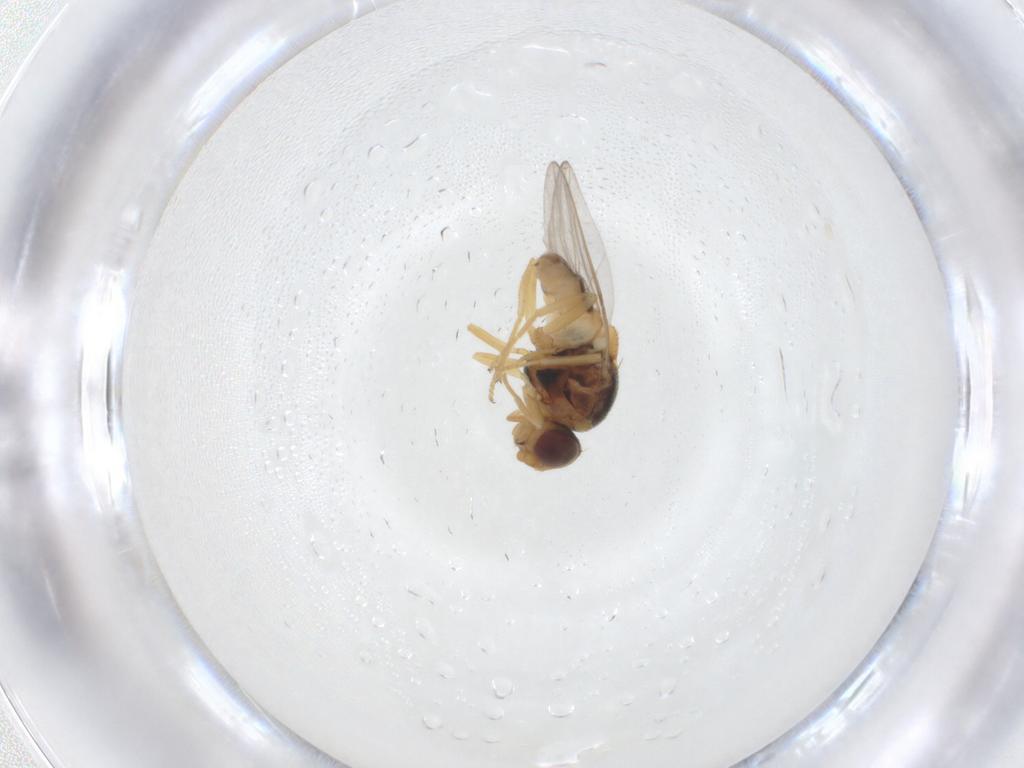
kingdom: Animalia
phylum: Arthropoda
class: Insecta
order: Diptera
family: Chloropidae
